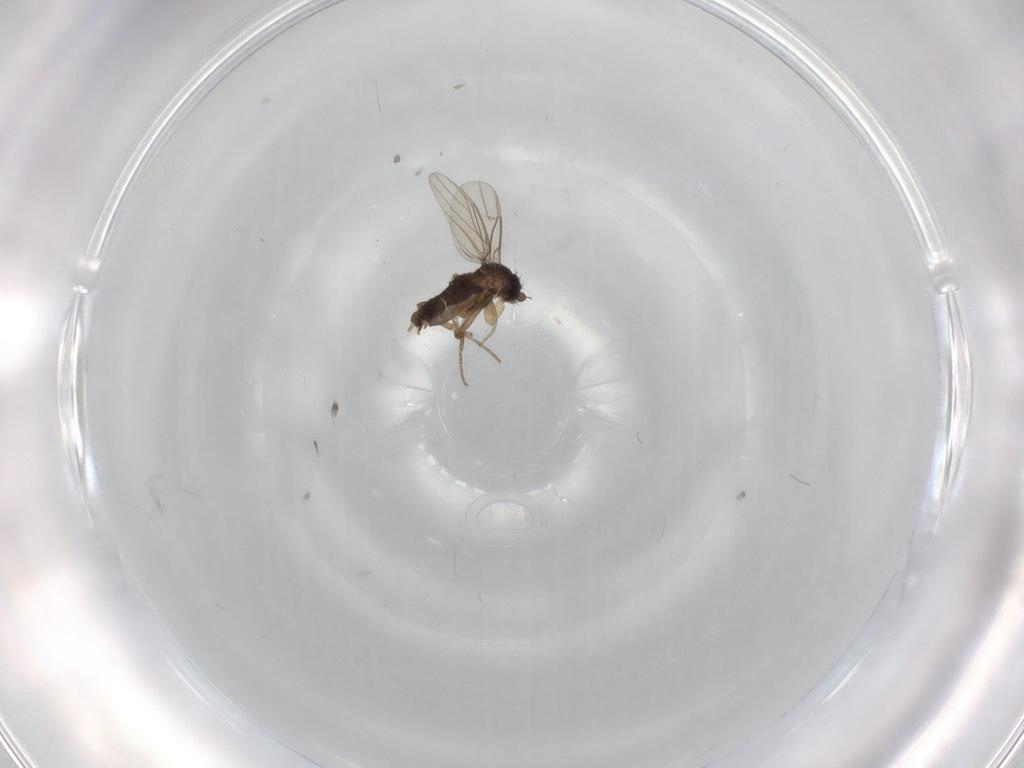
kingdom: Animalia
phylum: Arthropoda
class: Insecta
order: Diptera
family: Phoridae
